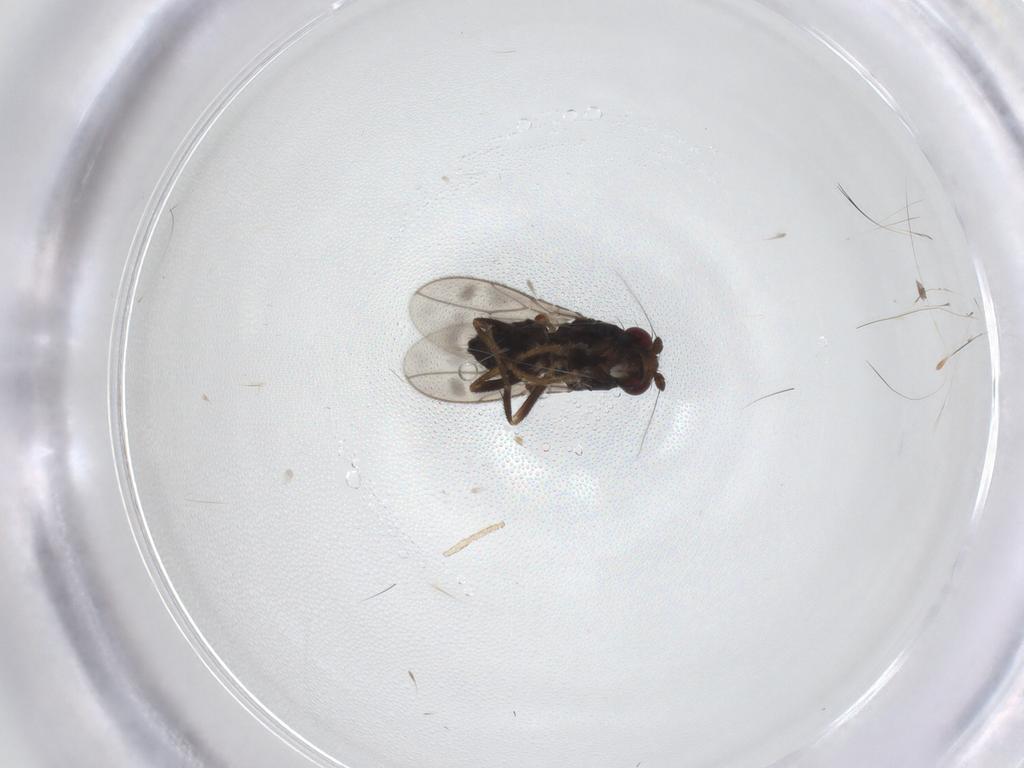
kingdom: Animalia
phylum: Arthropoda
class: Insecta
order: Diptera
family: Sphaeroceridae
